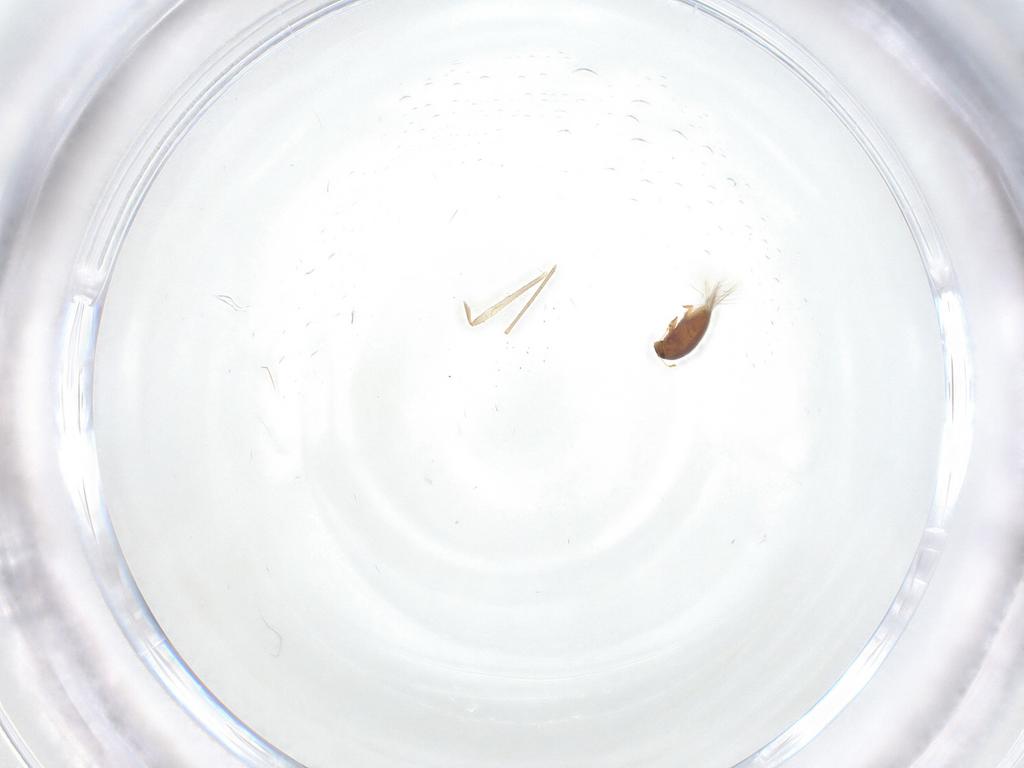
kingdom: Animalia
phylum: Arthropoda
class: Insecta
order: Coleoptera
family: Ptiliidae
